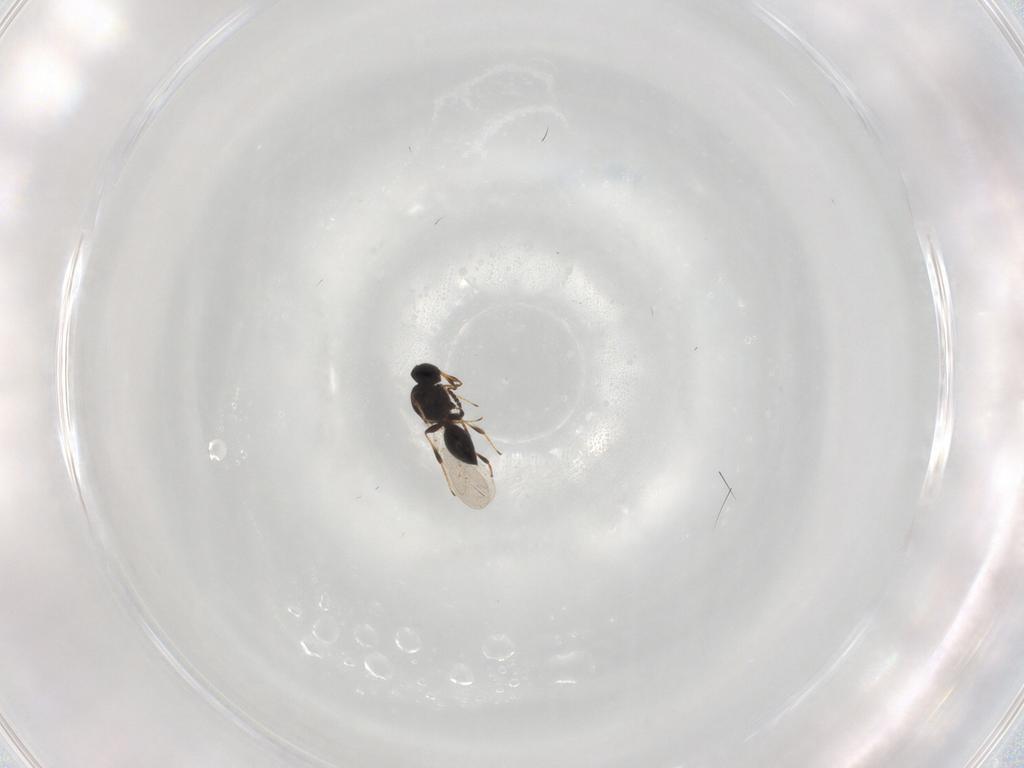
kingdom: Animalia
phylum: Arthropoda
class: Insecta
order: Hymenoptera
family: Platygastridae
